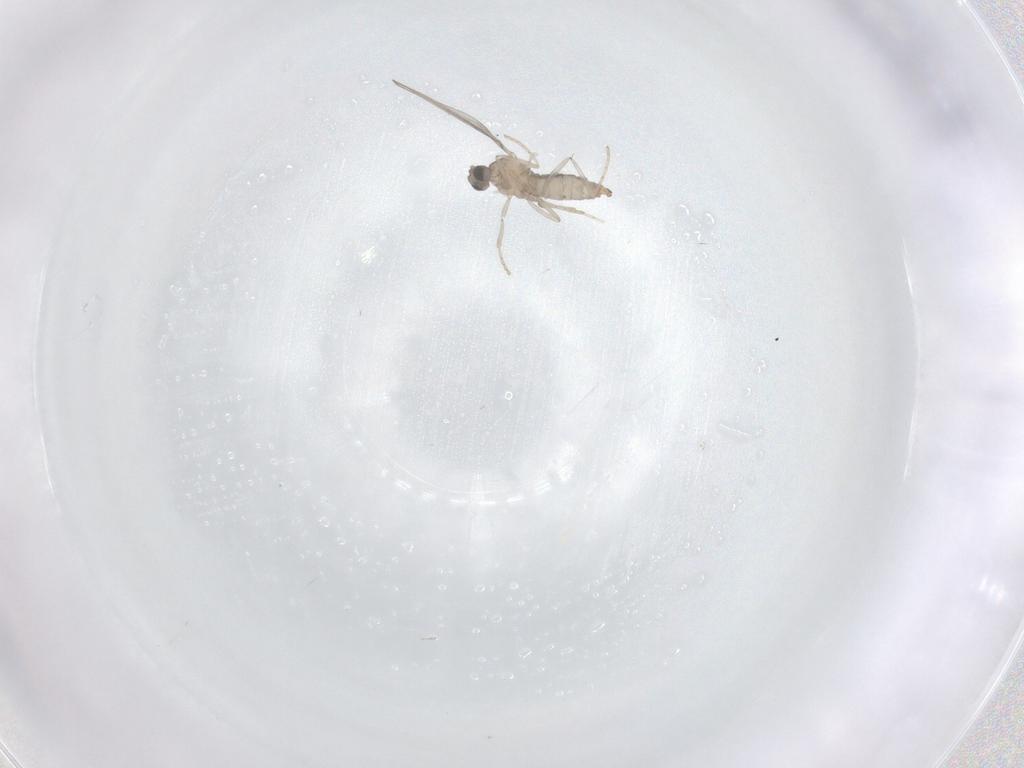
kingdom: Animalia
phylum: Arthropoda
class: Insecta
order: Diptera
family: Cecidomyiidae
